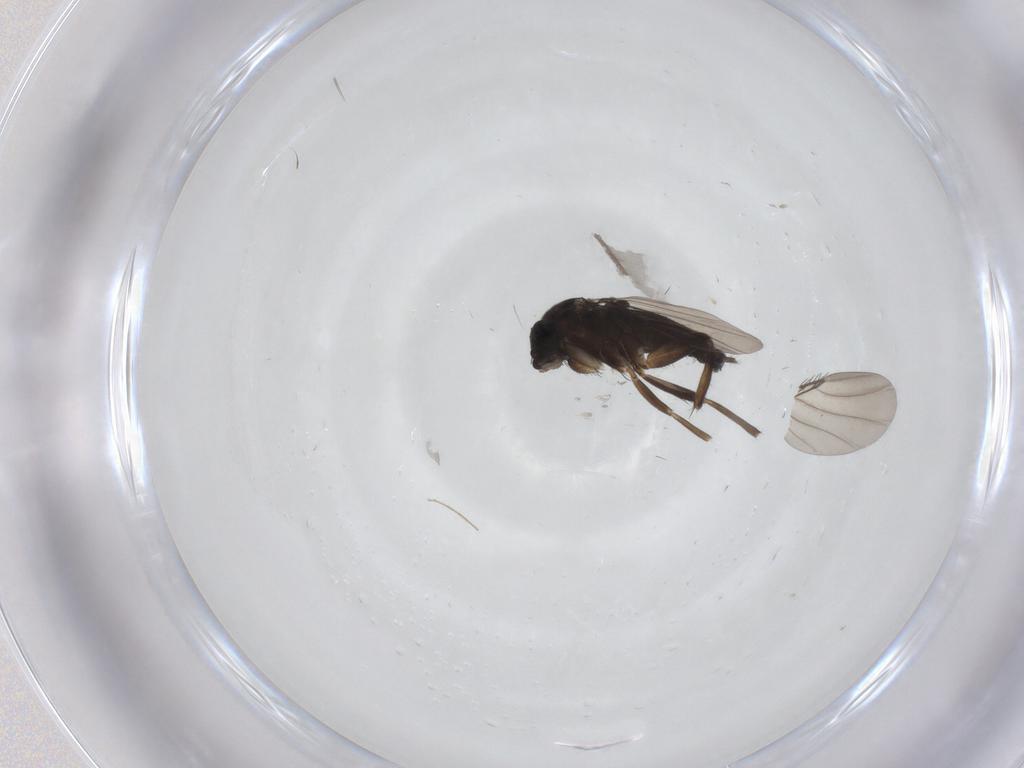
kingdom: Animalia
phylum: Arthropoda
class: Insecta
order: Diptera
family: Phoridae
